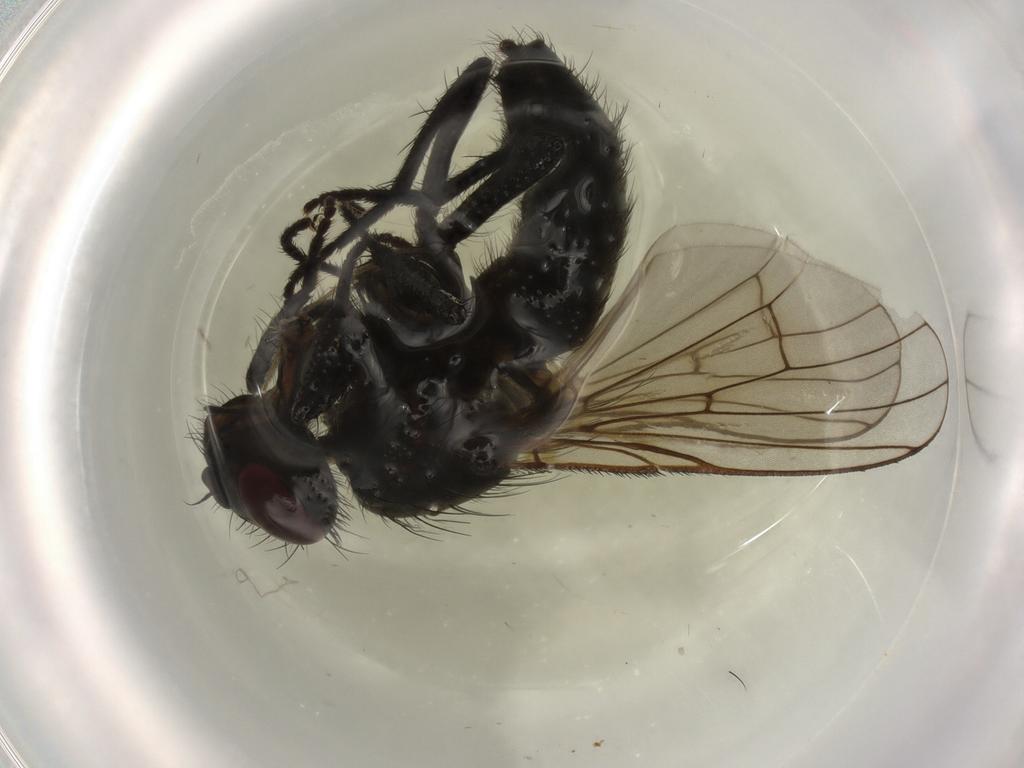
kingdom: Animalia
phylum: Arthropoda
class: Insecta
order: Diptera
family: Muscidae
